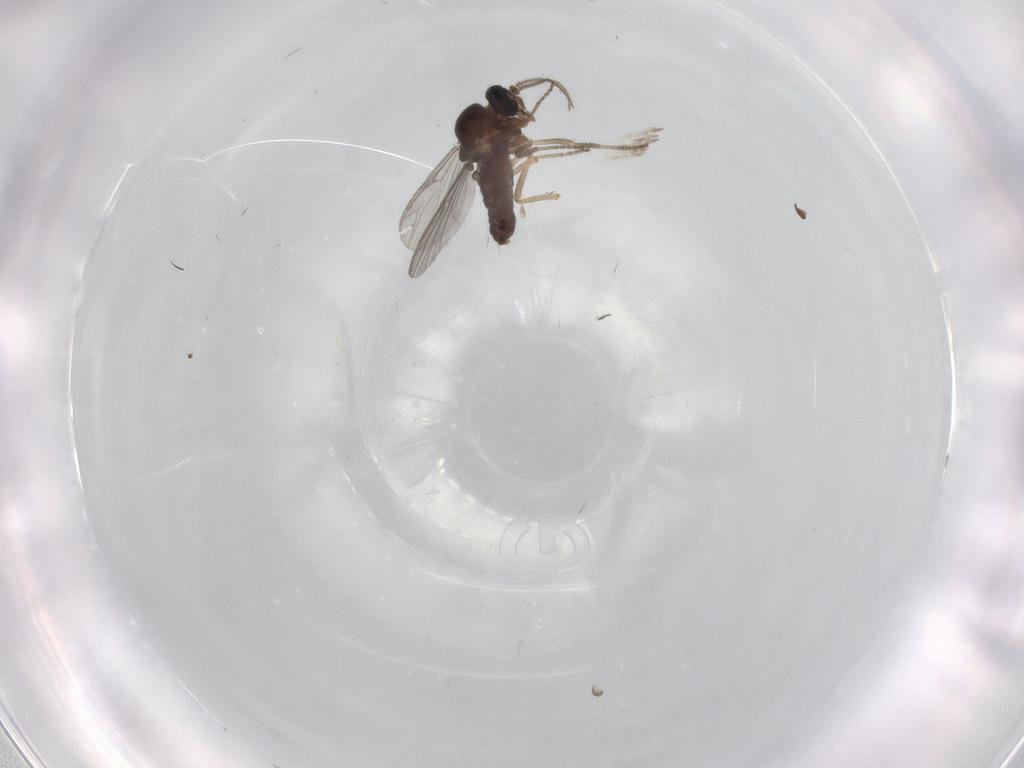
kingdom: Animalia
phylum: Arthropoda
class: Insecta
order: Diptera
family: Ceratopogonidae
